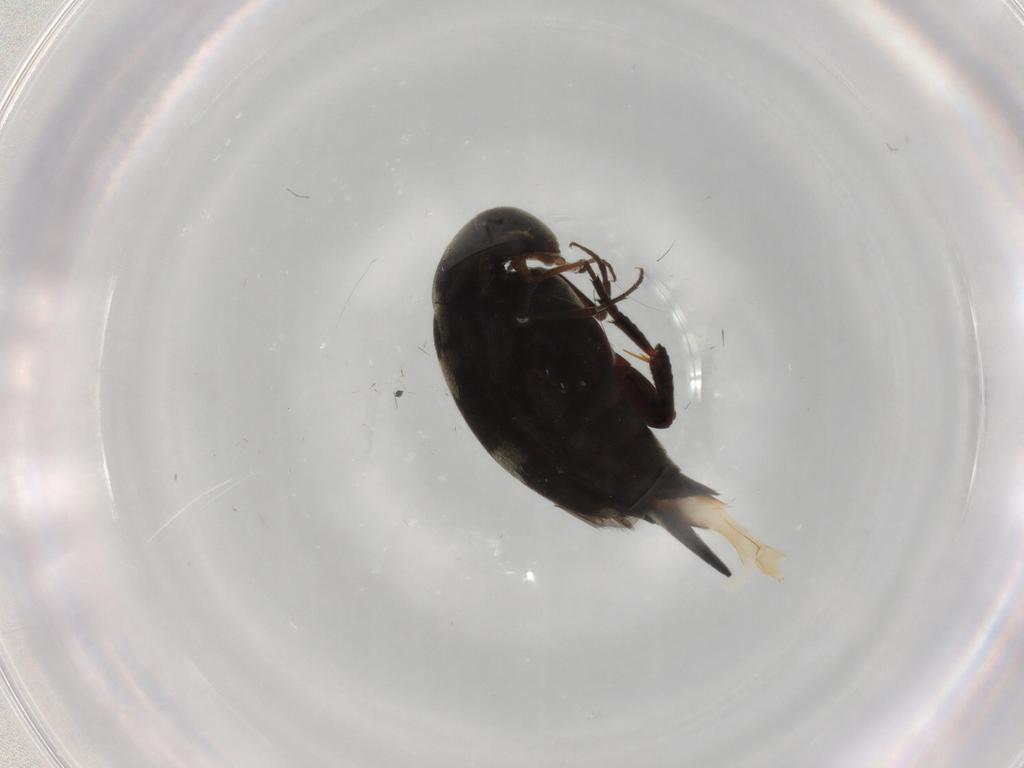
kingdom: Animalia
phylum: Arthropoda
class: Insecta
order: Coleoptera
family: Mordellidae
